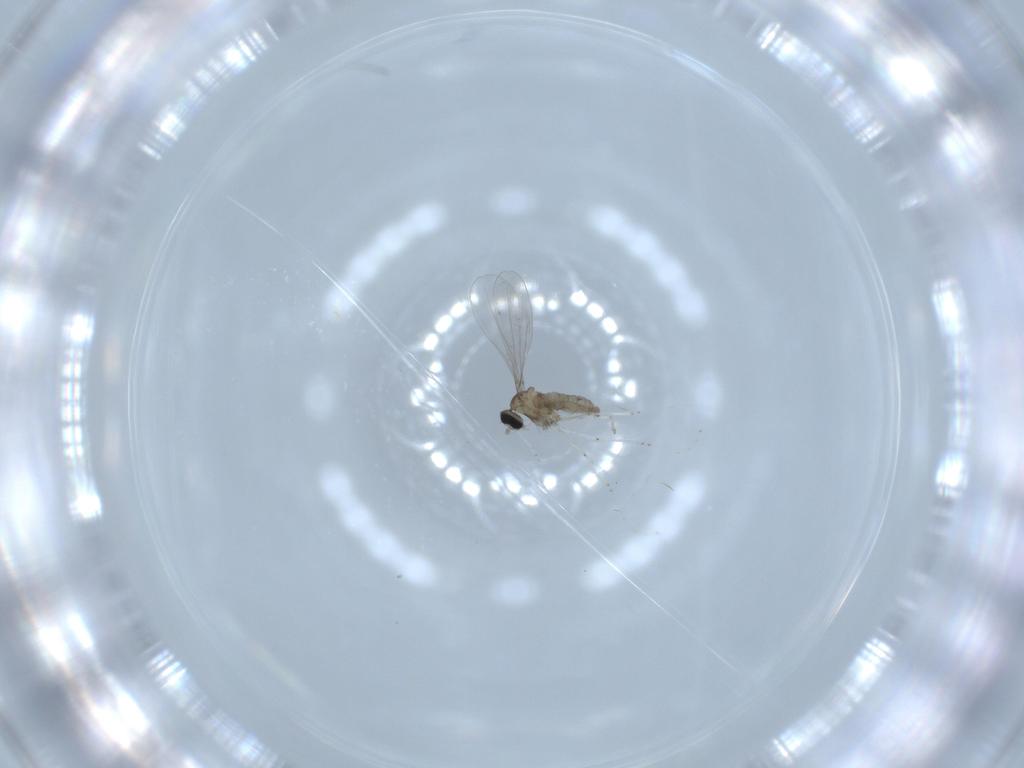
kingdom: Animalia
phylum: Arthropoda
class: Insecta
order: Diptera
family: Cecidomyiidae
